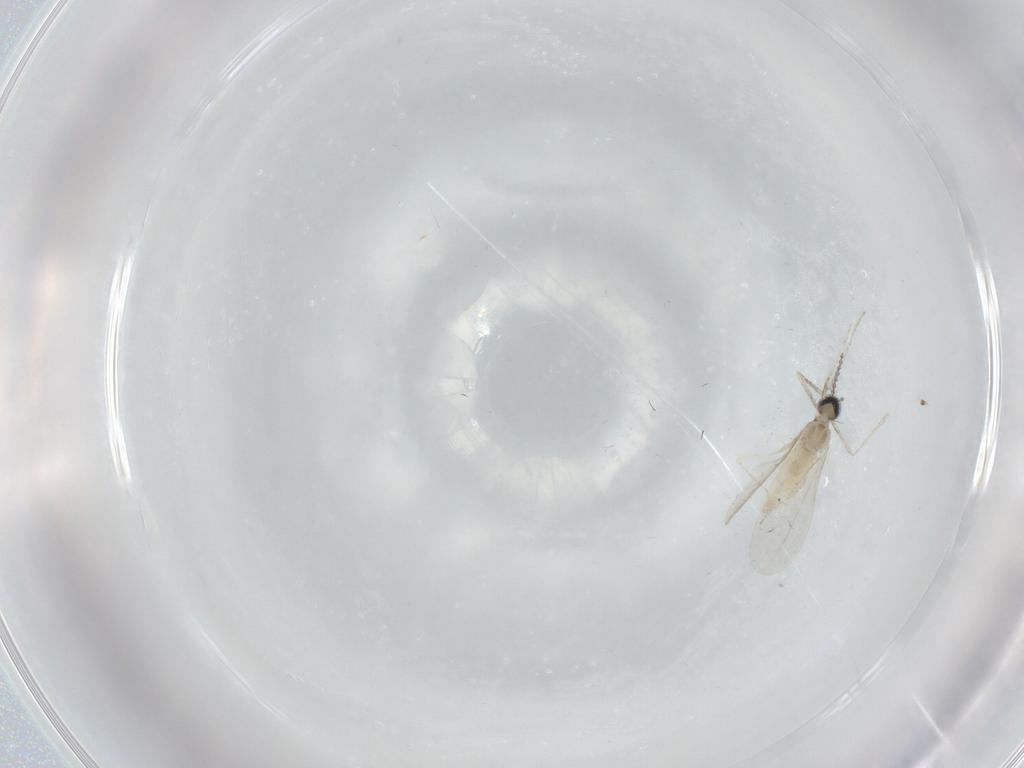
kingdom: Animalia
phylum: Arthropoda
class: Insecta
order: Diptera
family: Cecidomyiidae
